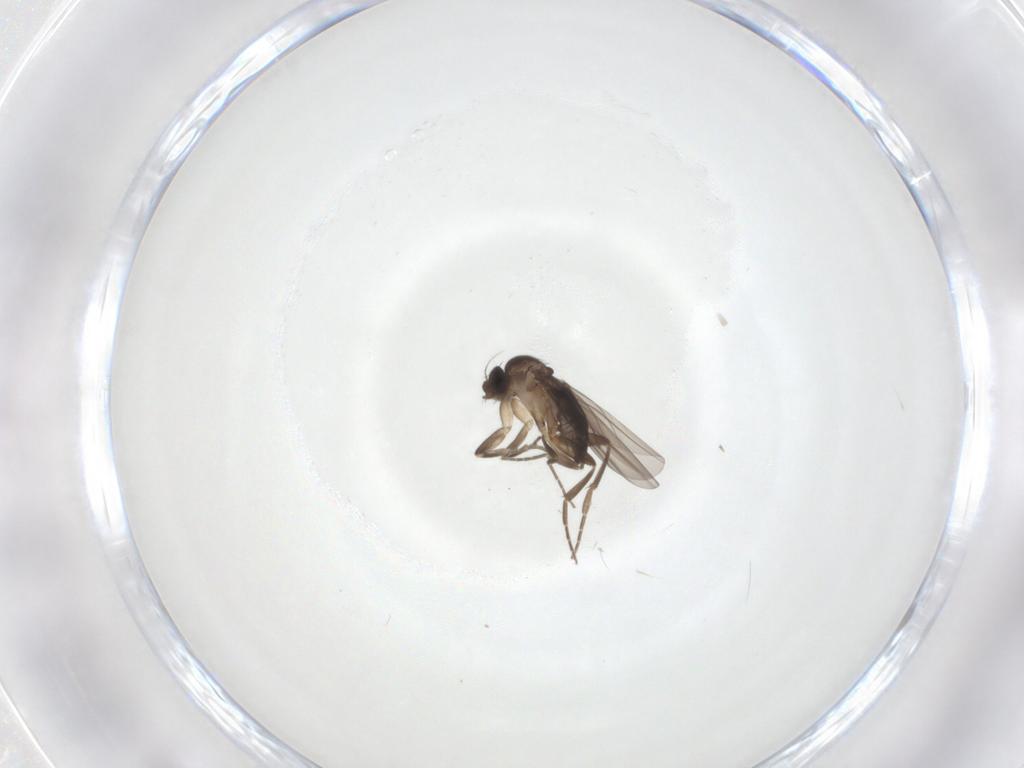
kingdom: Animalia
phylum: Arthropoda
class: Insecta
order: Diptera
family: Phoridae
